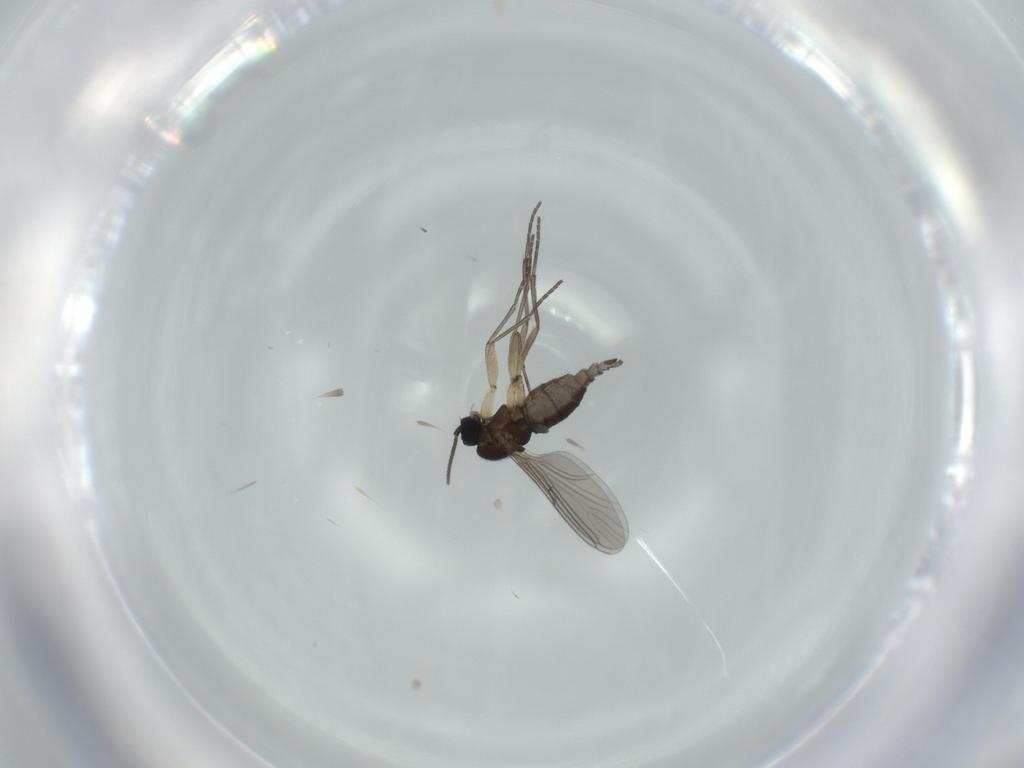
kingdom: Animalia
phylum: Arthropoda
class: Insecta
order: Diptera
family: Sciaridae
